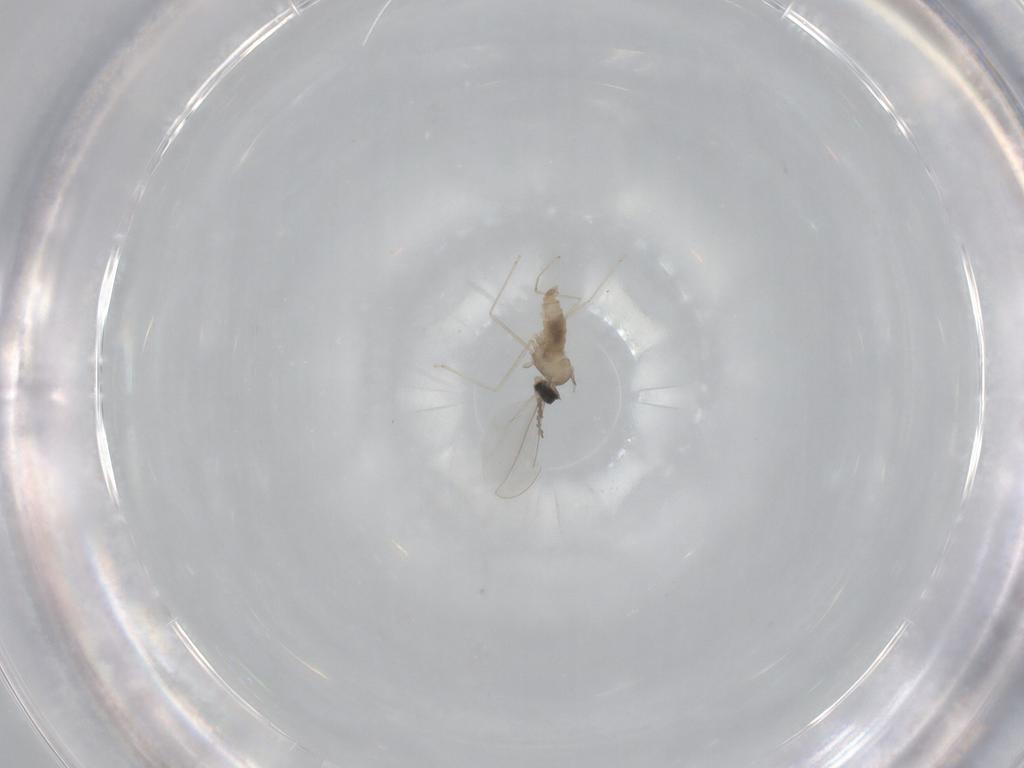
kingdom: Animalia
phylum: Arthropoda
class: Insecta
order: Diptera
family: Cecidomyiidae
